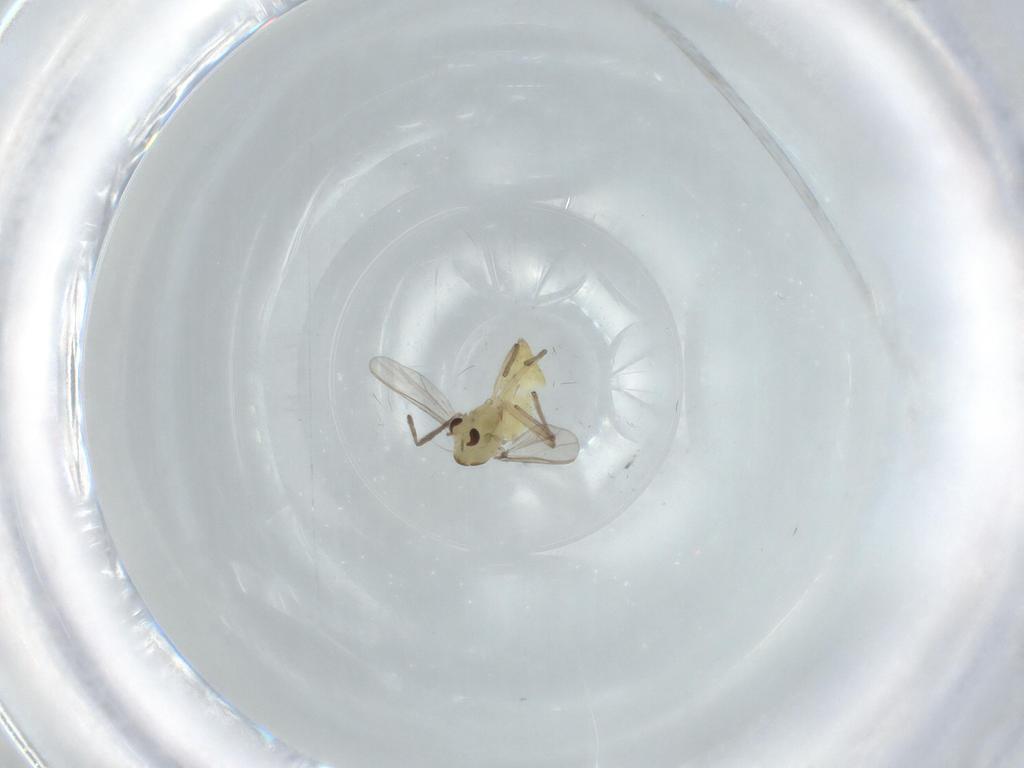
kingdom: Animalia
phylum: Arthropoda
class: Insecta
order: Diptera
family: Chironomidae
